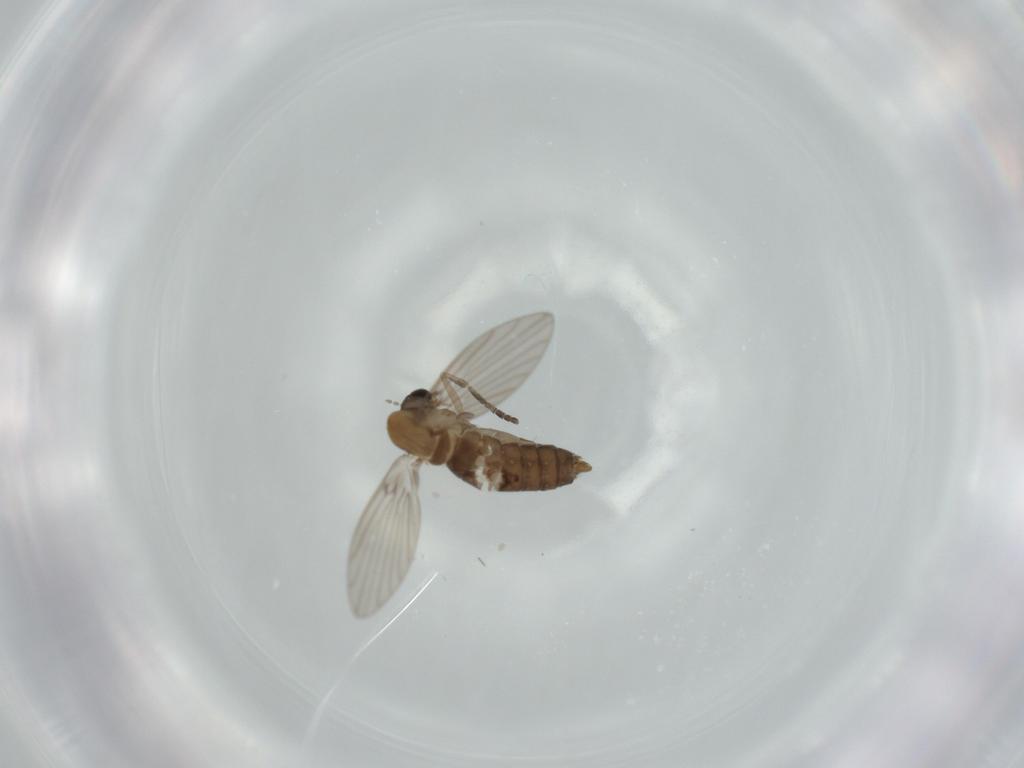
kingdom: Animalia
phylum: Arthropoda
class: Insecta
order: Diptera
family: Psychodidae
